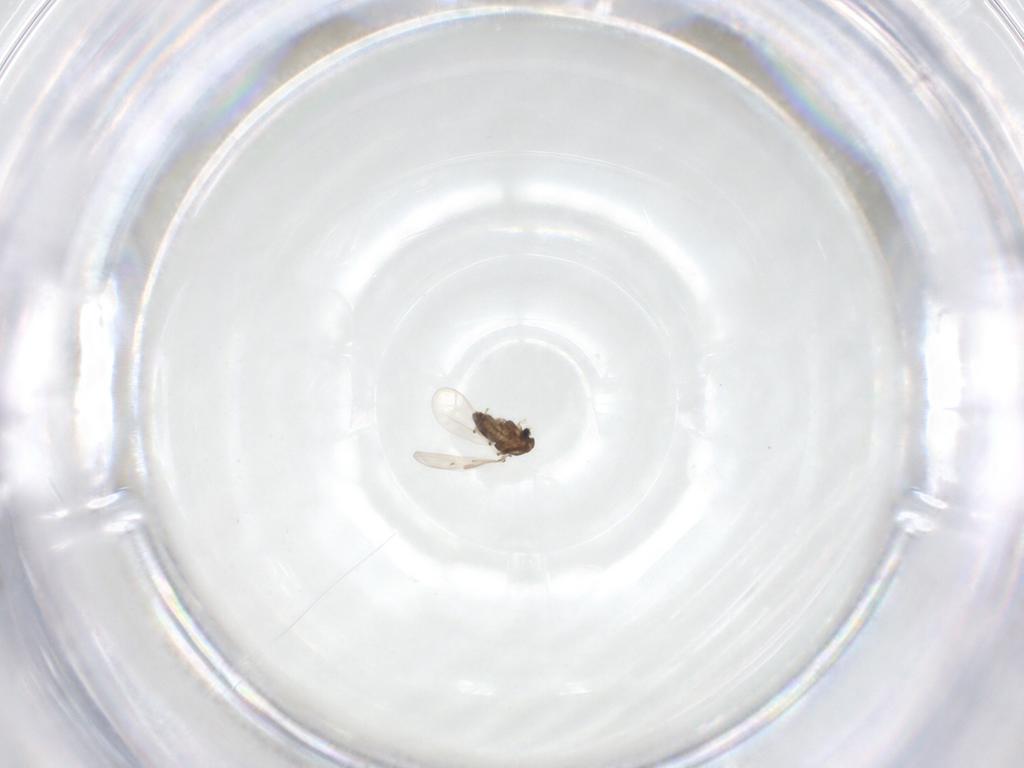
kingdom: Animalia
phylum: Arthropoda
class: Insecta
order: Diptera
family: Chironomidae
